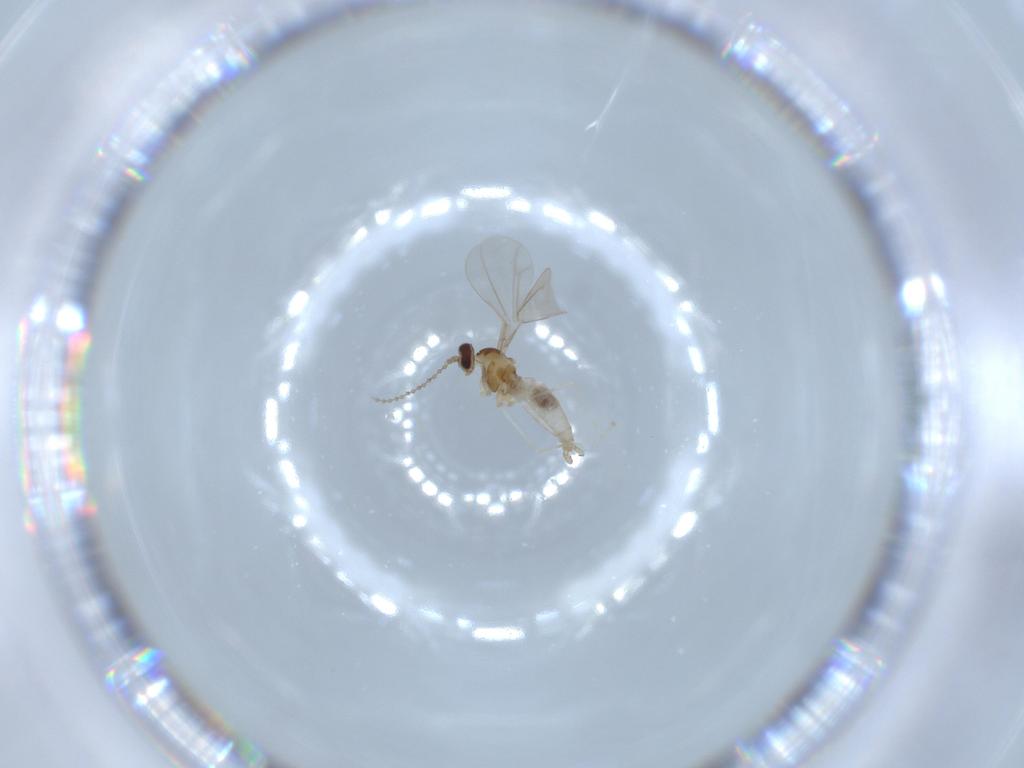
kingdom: Animalia
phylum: Arthropoda
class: Insecta
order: Diptera
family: Cecidomyiidae
